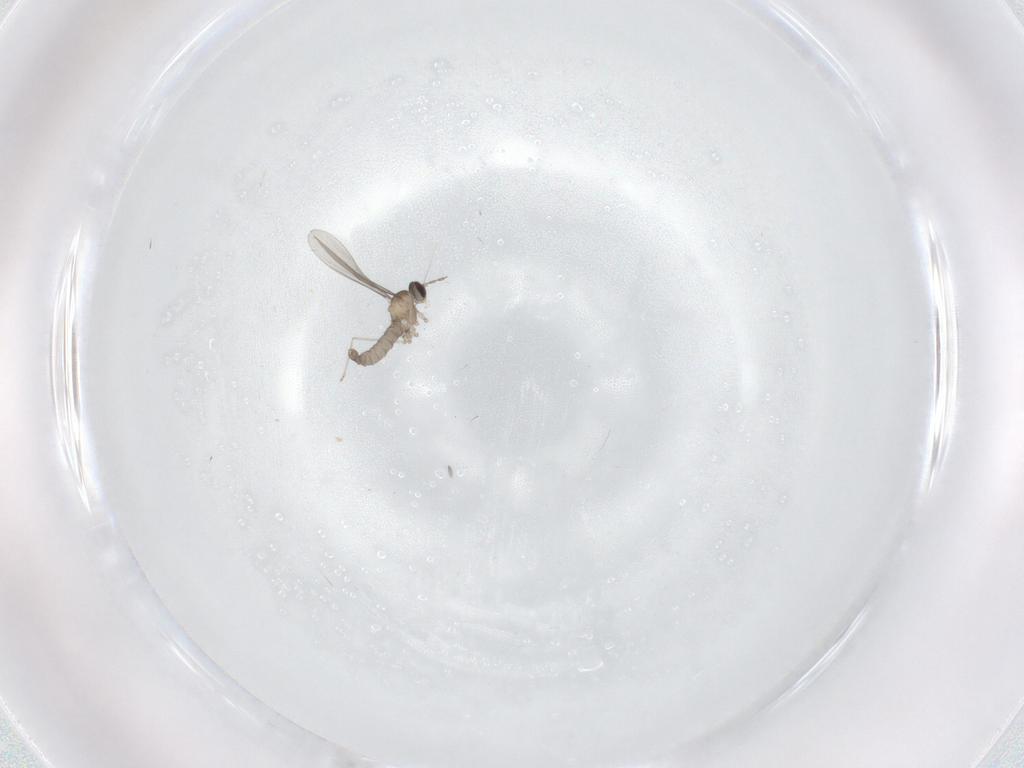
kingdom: Animalia
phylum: Arthropoda
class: Insecta
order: Diptera
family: Cecidomyiidae
